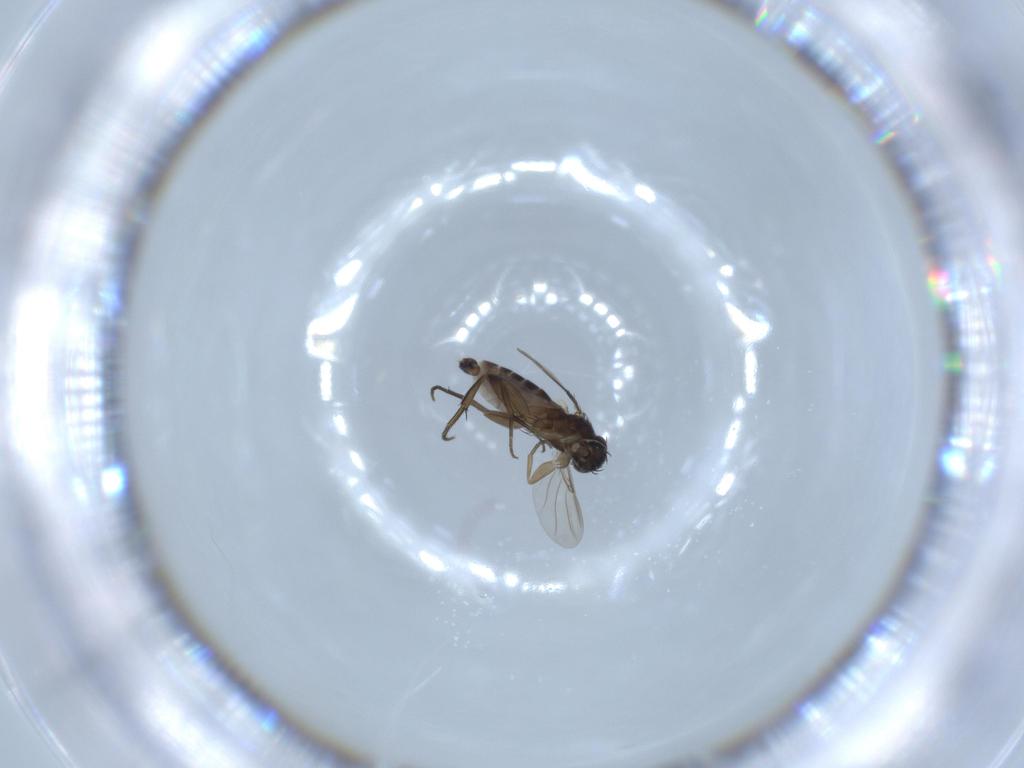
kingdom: Animalia
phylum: Arthropoda
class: Insecta
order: Diptera
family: Phoridae
